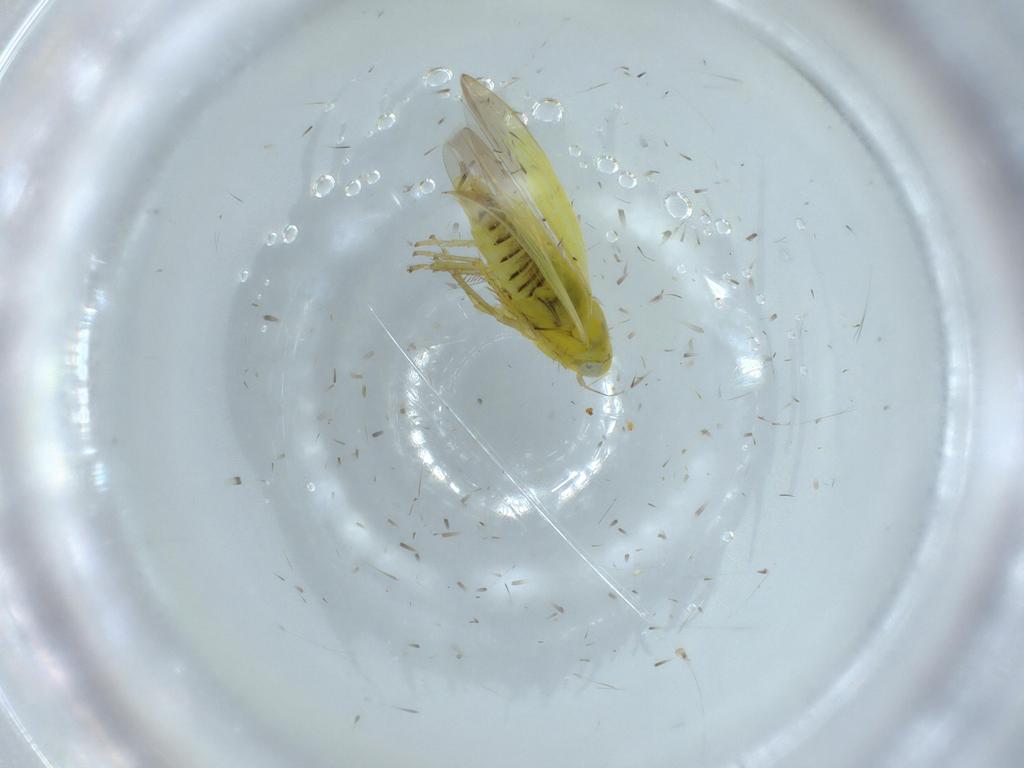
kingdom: Animalia
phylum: Arthropoda
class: Insecta
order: Hemiptera
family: Cicadellidae
